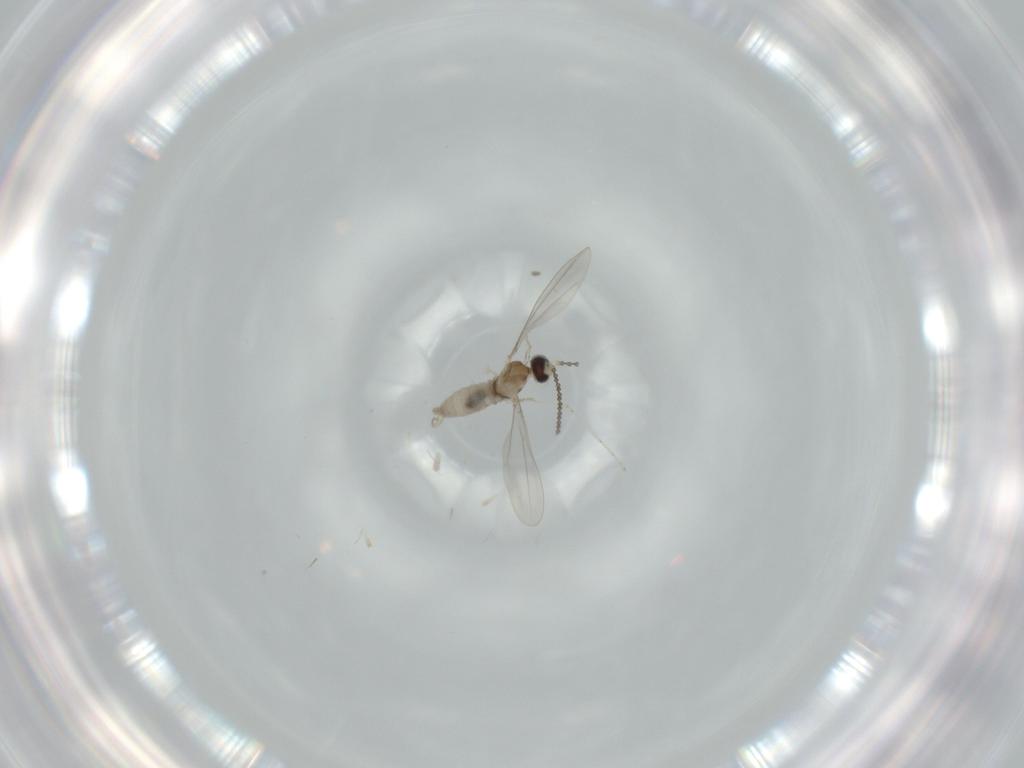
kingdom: Animalia
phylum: Arthropoda
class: Insecta
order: Diptera
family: Cecidomyiidae
